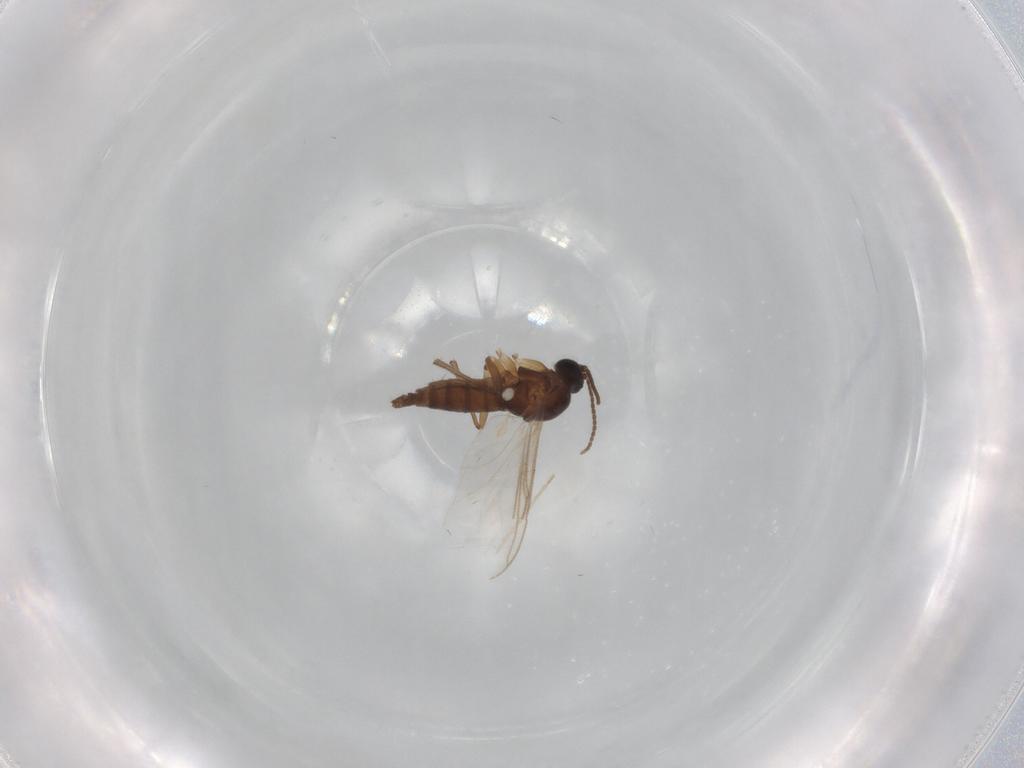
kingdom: Animalia
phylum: Arthropoda
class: Insecta
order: Diptera
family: Sciaridae
